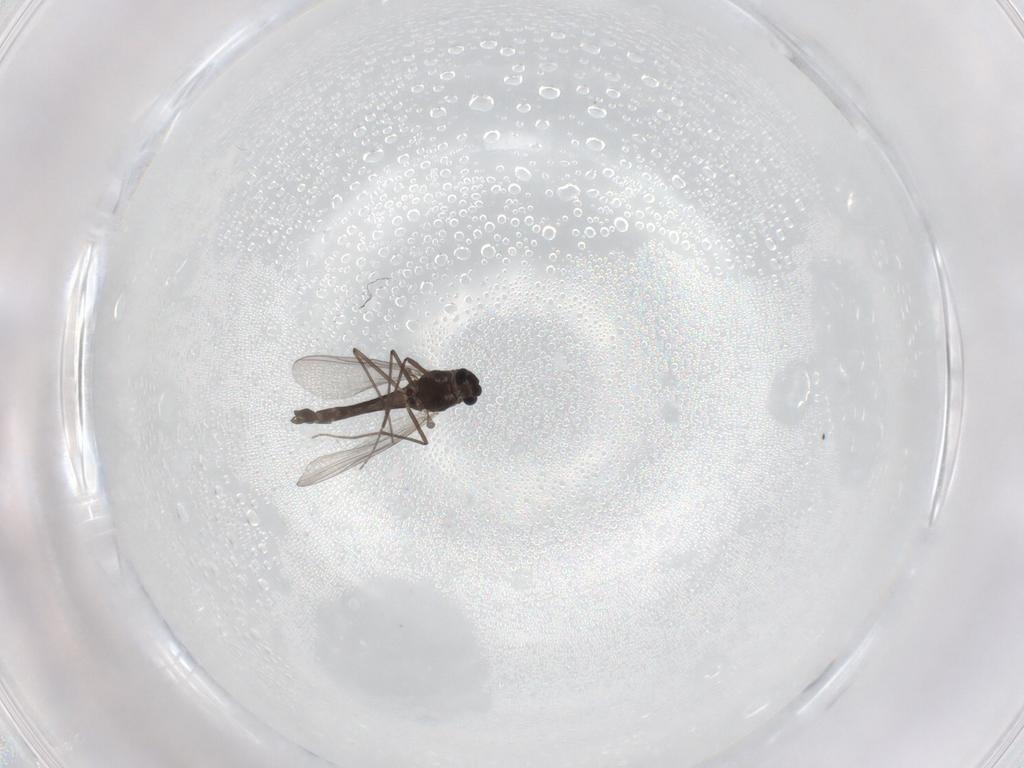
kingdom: Animalia
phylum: Arthropoda
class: Insecta
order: Diptera
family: Chironomidae
